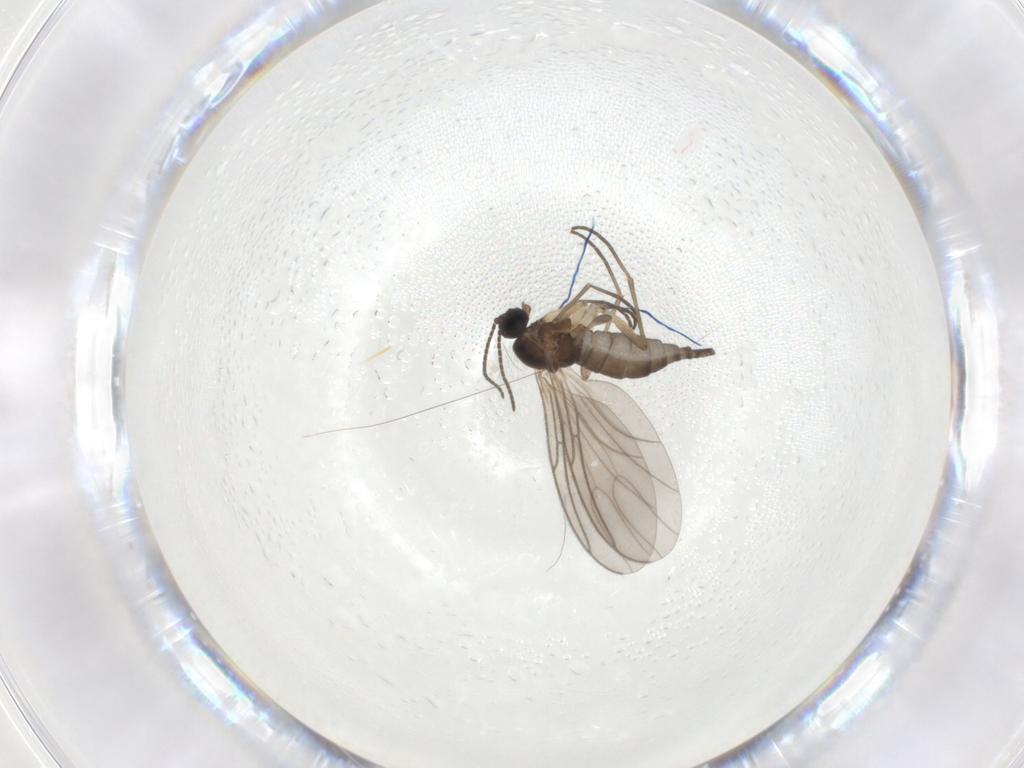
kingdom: Animalia
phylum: Arthropoda
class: Insecta
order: Diptera
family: Sciaridae
